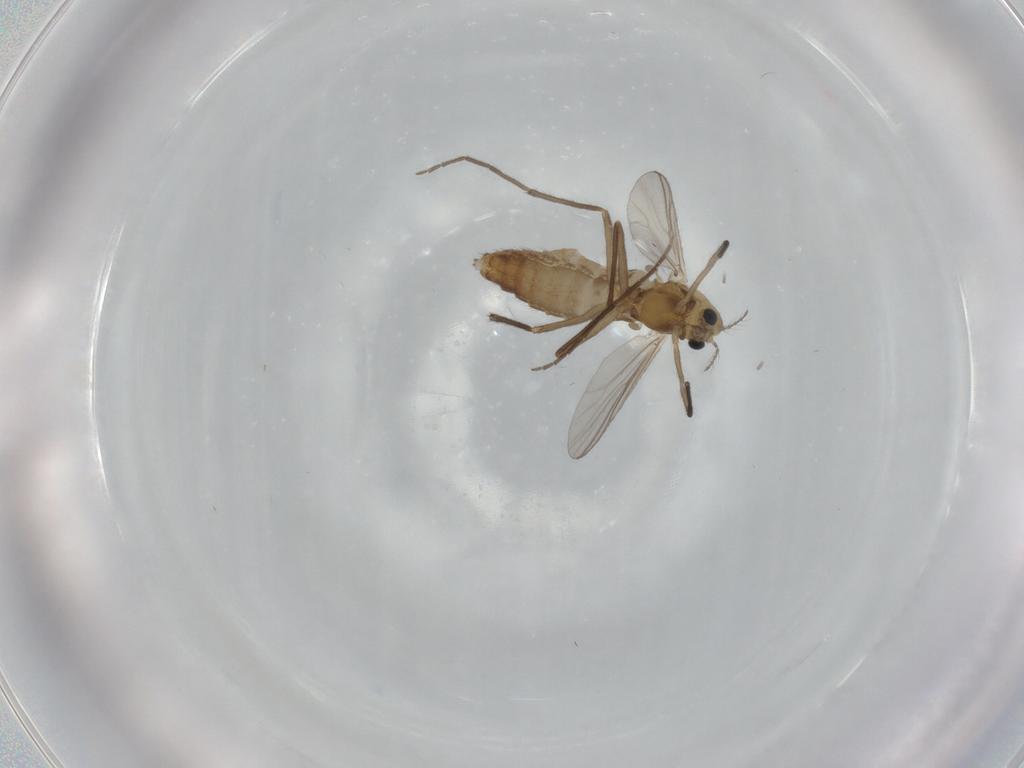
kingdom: Animalia
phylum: Arthropoda
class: Insecta
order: Diptera
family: Chironomidae
